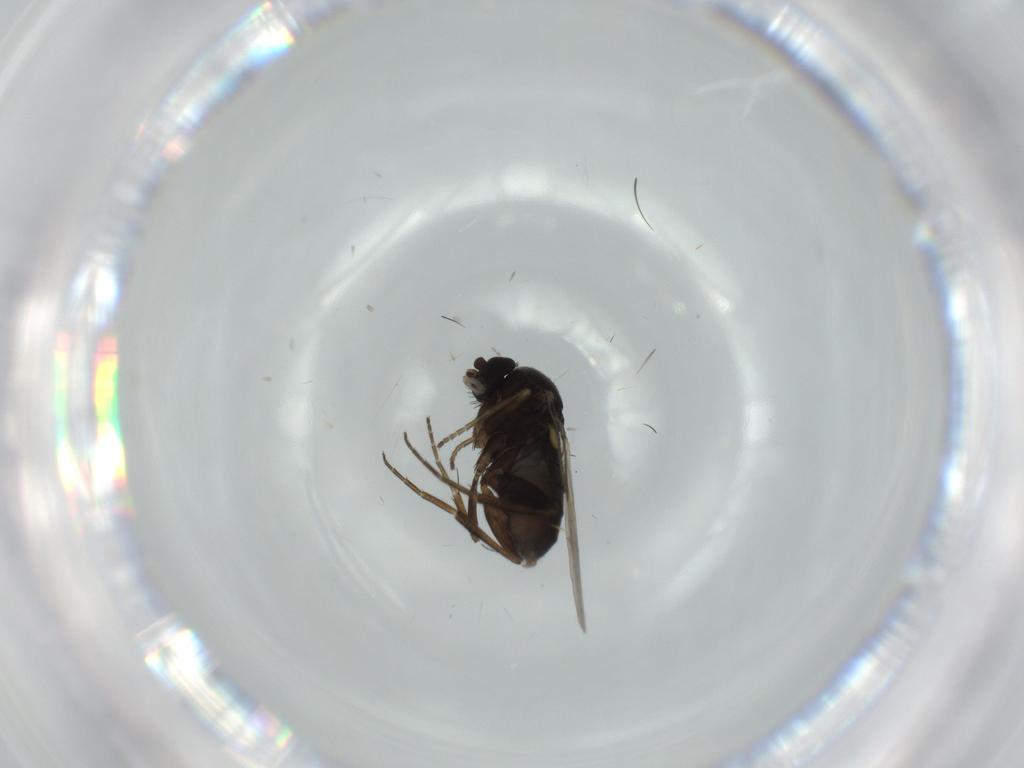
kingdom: Animalia
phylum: Arthropoda
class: Insecta
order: Diptera
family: Phoridae
